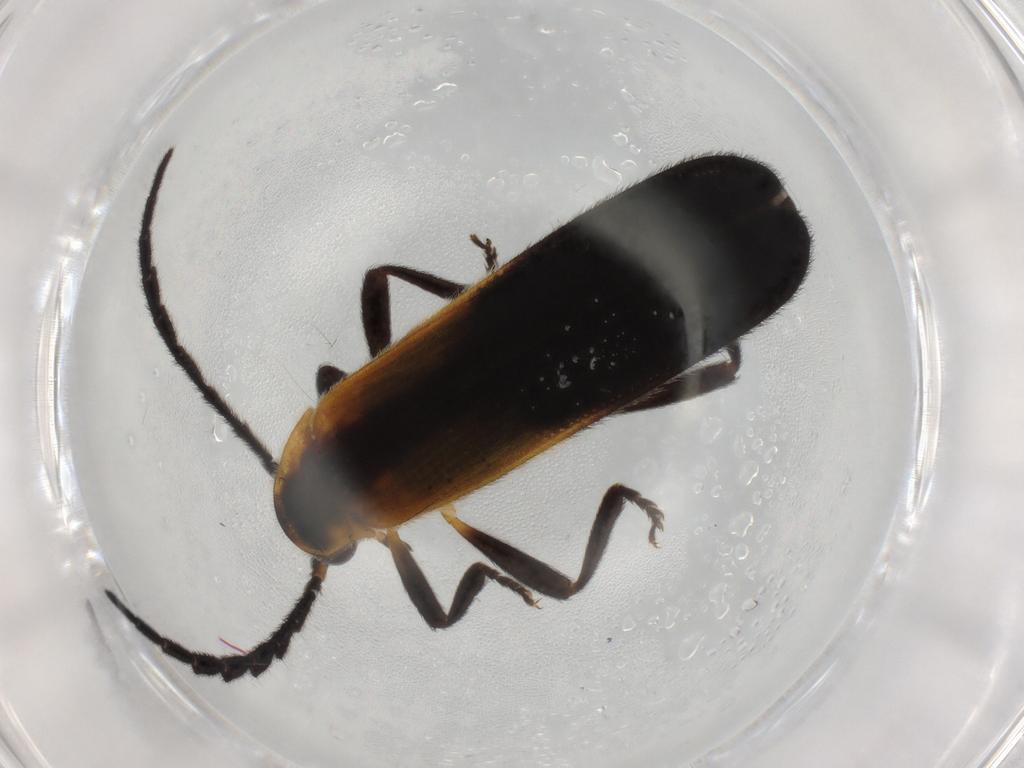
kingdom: Animalia
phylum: Arthropoda
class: Insecta
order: Coleoptera
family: Lycidae
